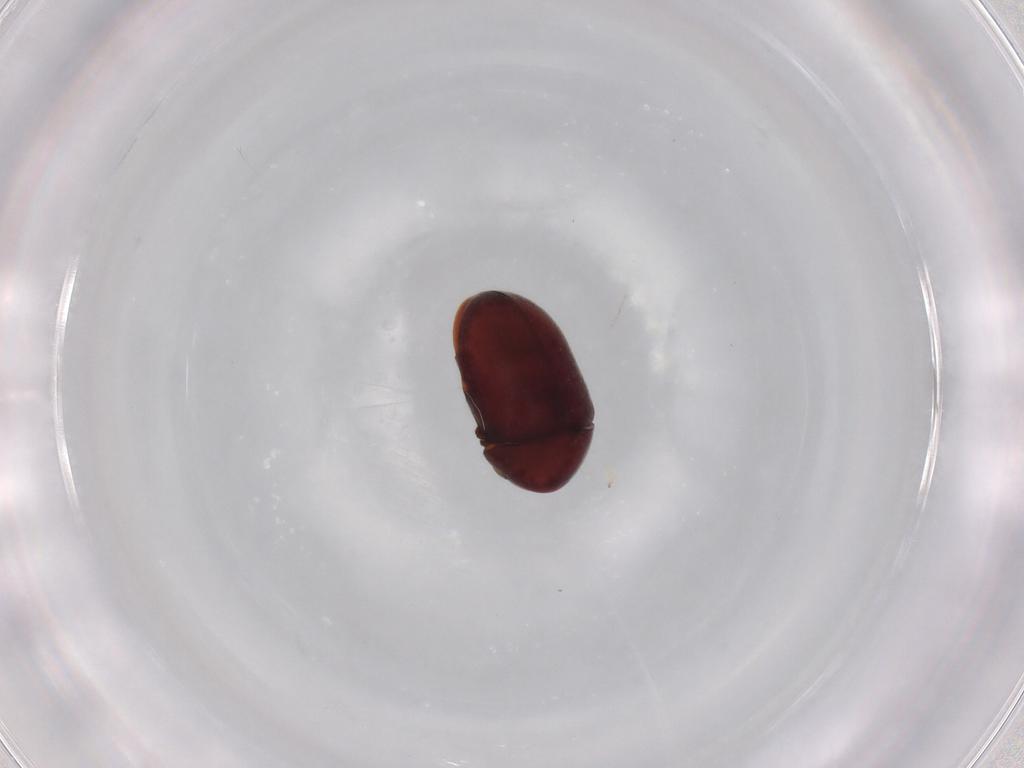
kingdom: Animalia
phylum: Arthropoda
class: Insecta
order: Coleoptera
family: Ptinidae
